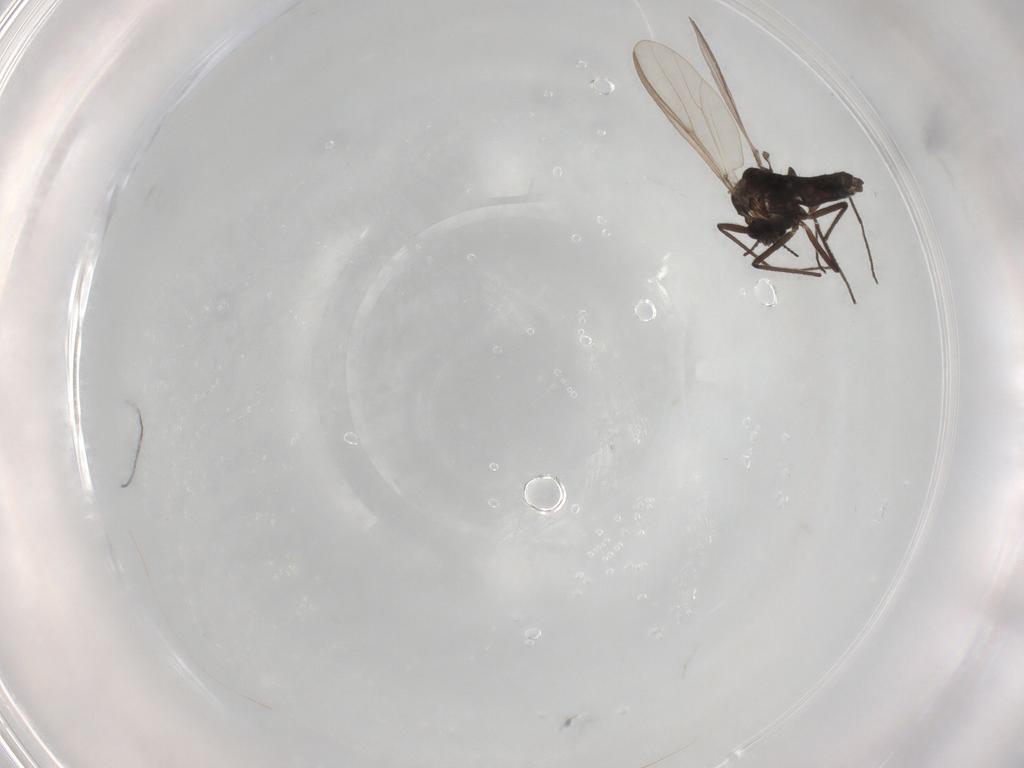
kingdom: Animalia
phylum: Arthropoda
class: Insecta
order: Diptera
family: Chironomidae
